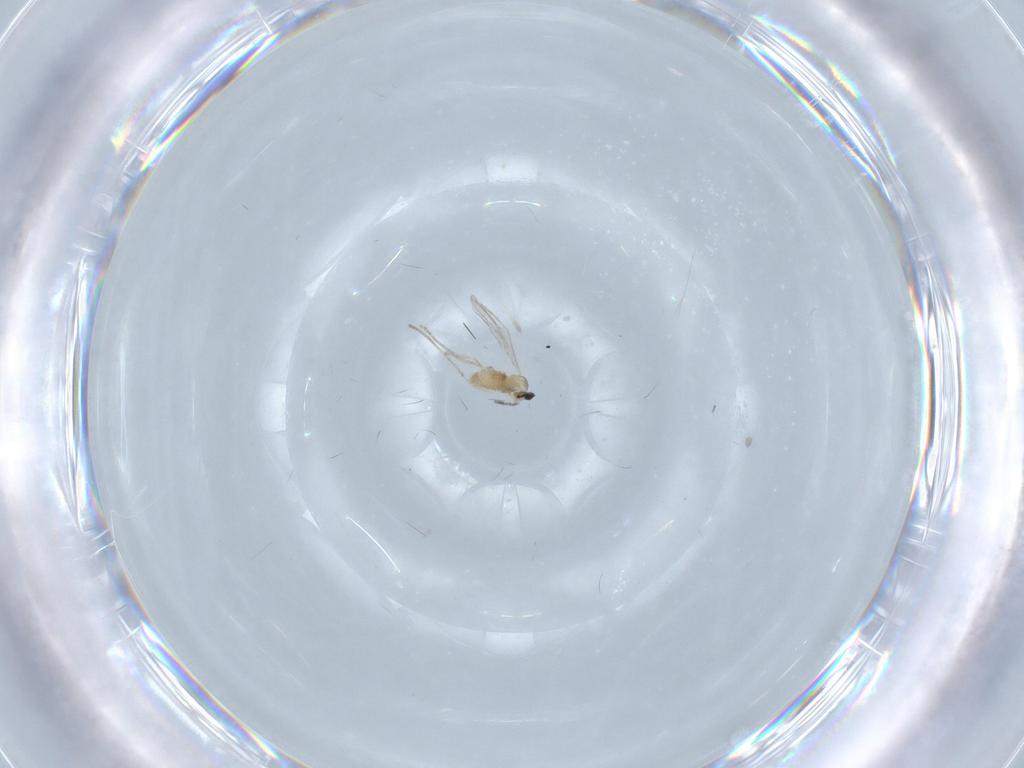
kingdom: Animalia
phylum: Arthropoda
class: Insecta
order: Diptera
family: Cecidomyiidae
